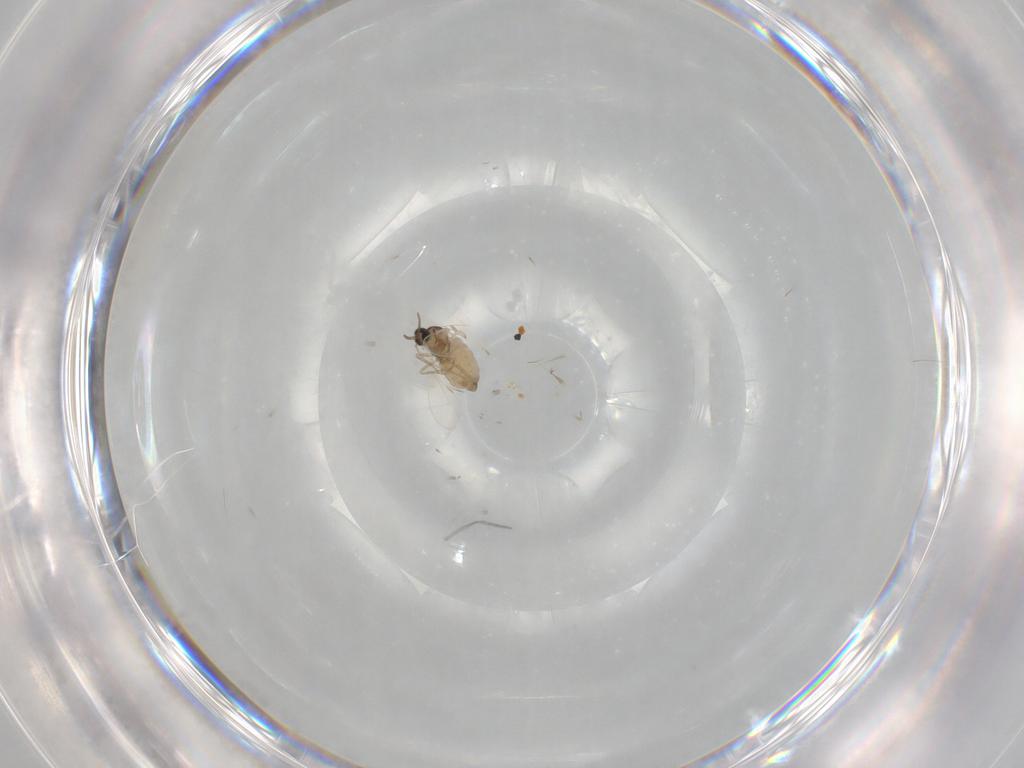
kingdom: Animalia
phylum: Arthropoda
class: Insecta
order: Diptera
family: Cecidomyiidae
